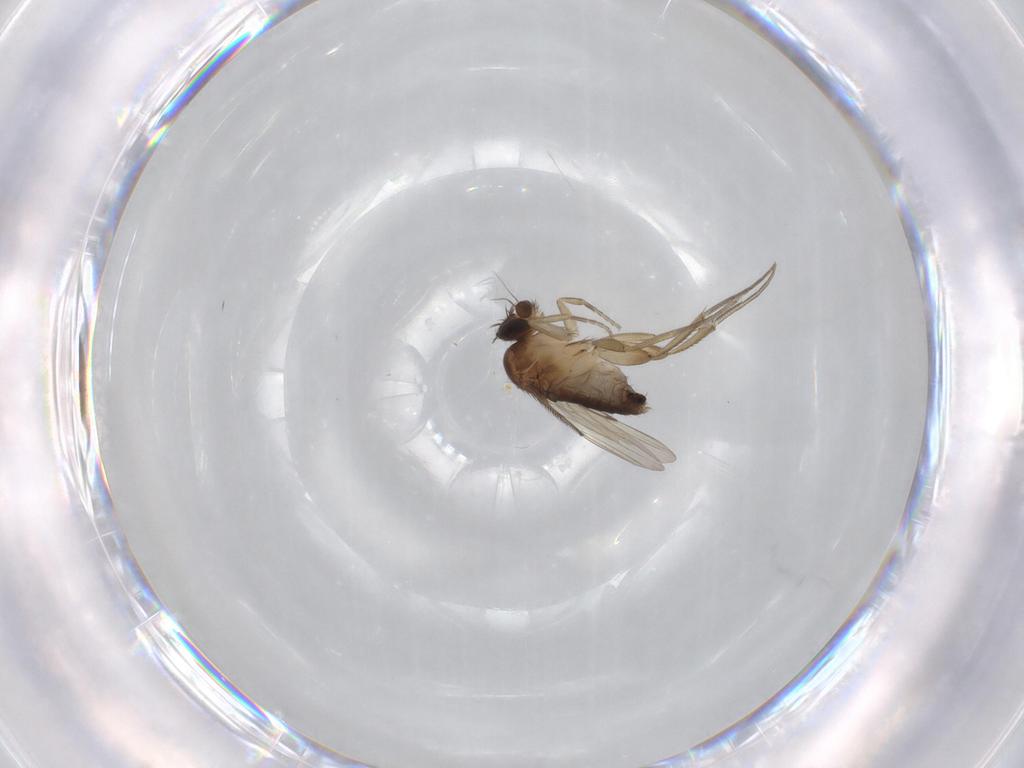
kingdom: Animalia
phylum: Arthropoda
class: Insecta
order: Diptera
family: Phoridae
